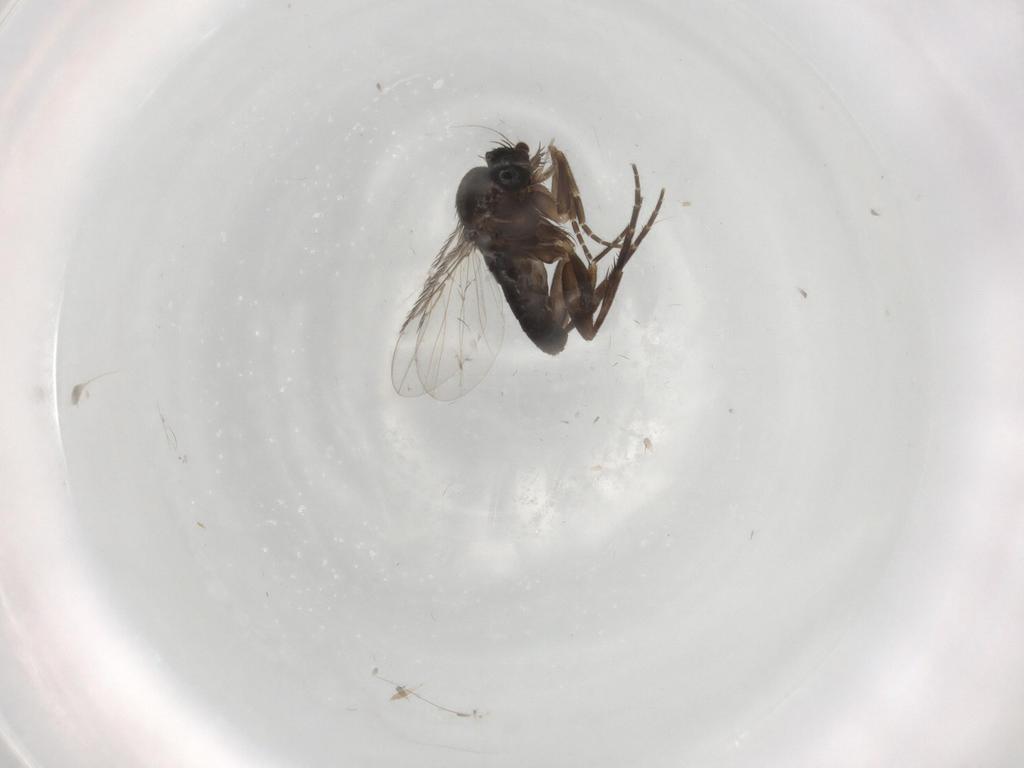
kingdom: Animalia
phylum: Arthropoda
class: Insecta
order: Diptera
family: Phoridae
